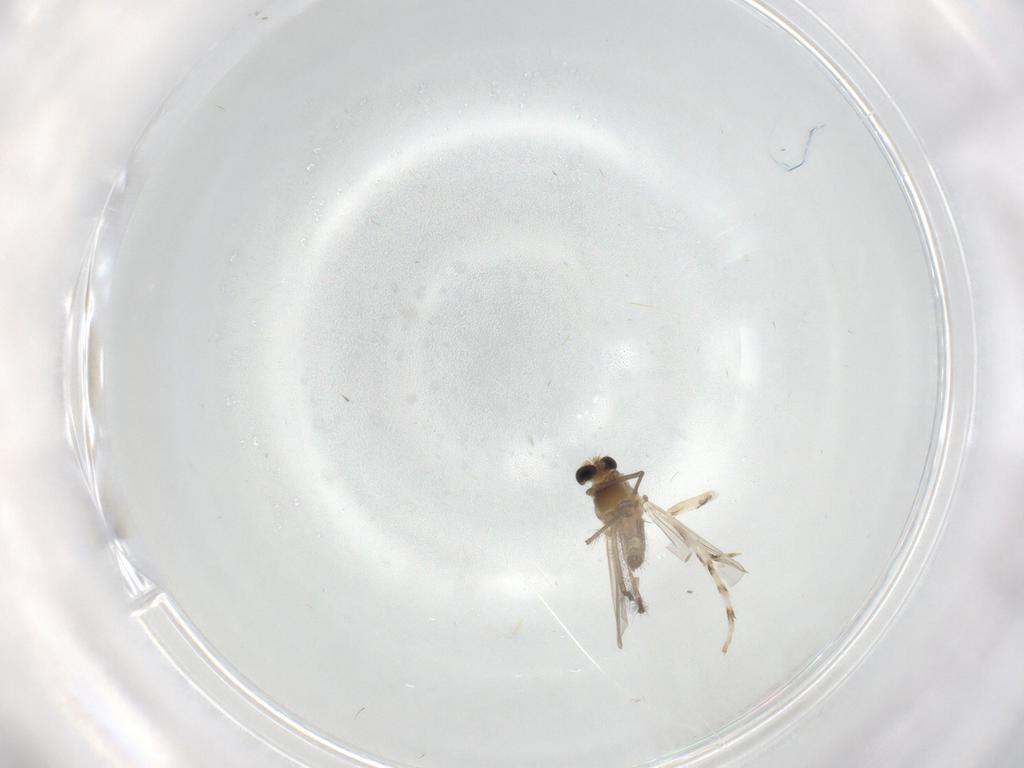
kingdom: Animalia
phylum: Arthropoda
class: Insecta
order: Diptera
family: Chironomidae
